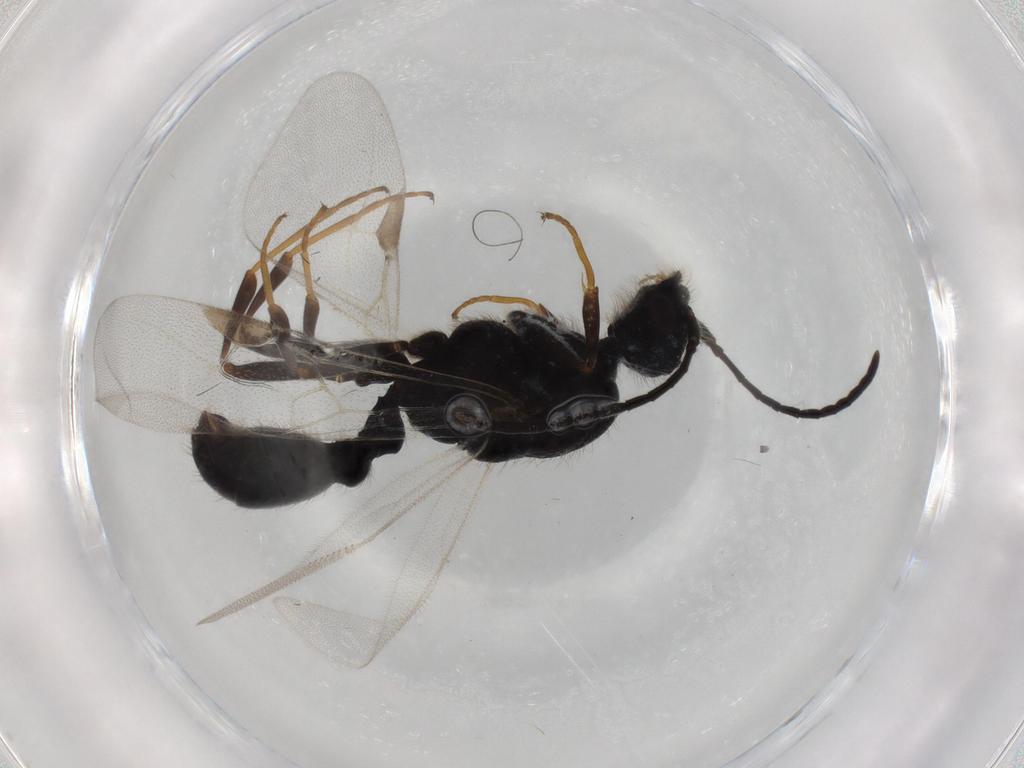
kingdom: Animalia
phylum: Arthropoda
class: Insecta
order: Hymenoptera
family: Formicidae
